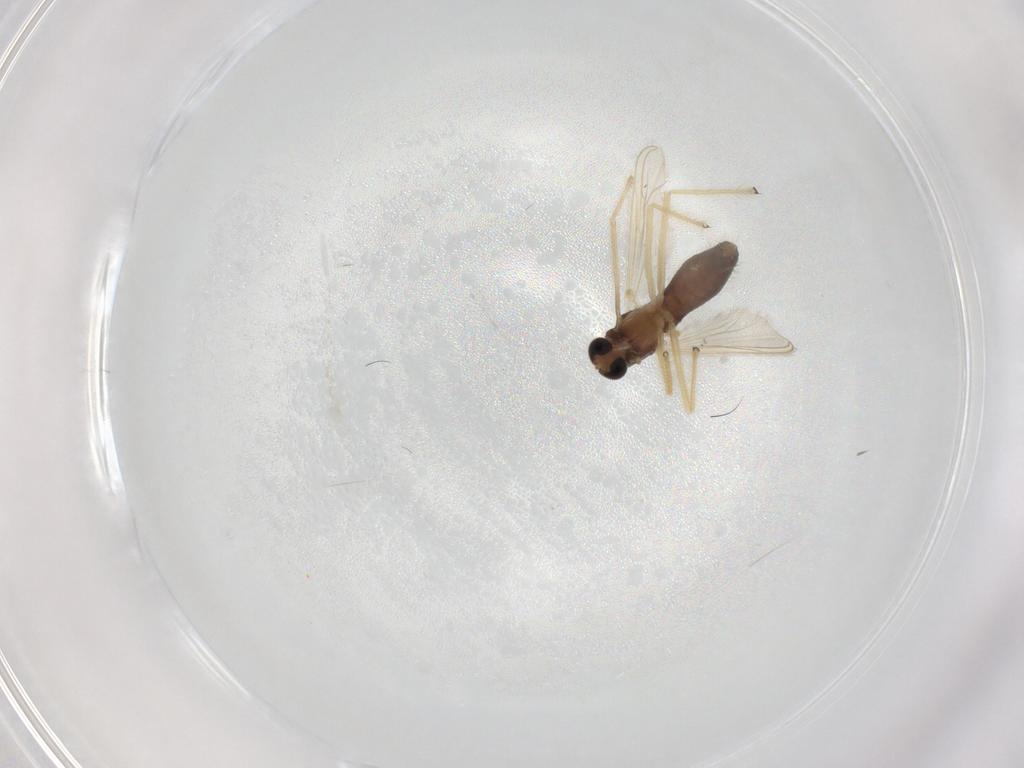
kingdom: Animalia
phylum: Arthropoda
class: Insecta
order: Diptera
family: Chironomidae
